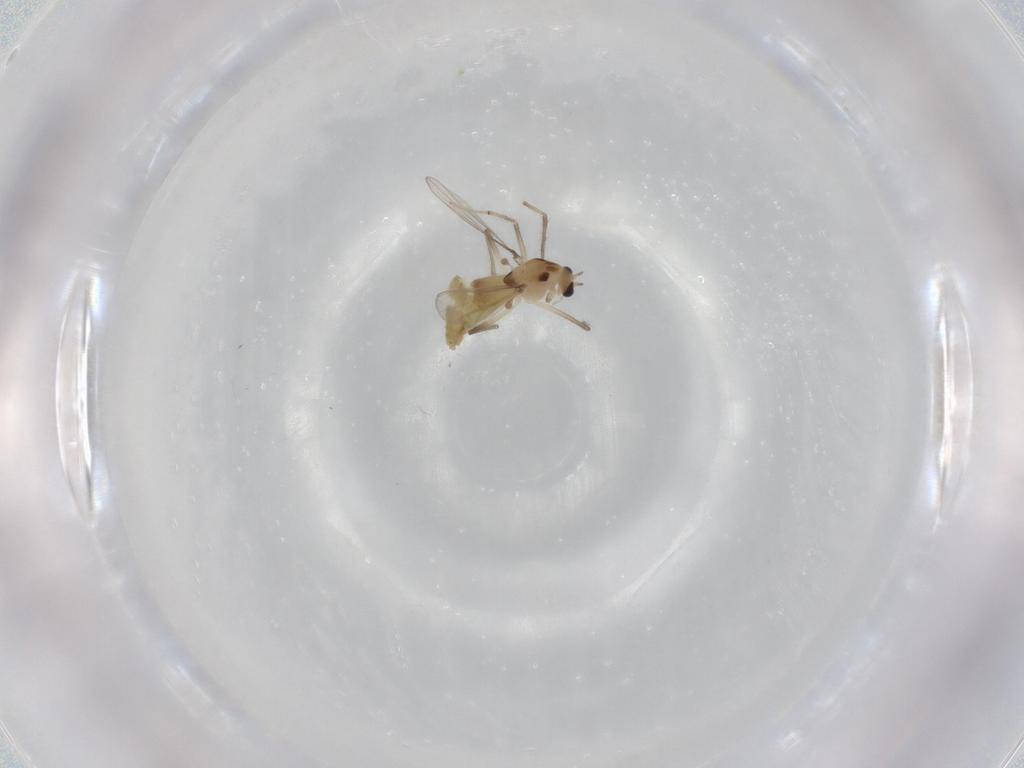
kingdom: Animalia
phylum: Arthropoda
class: Insecta
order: Diptera
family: Chironomidae
